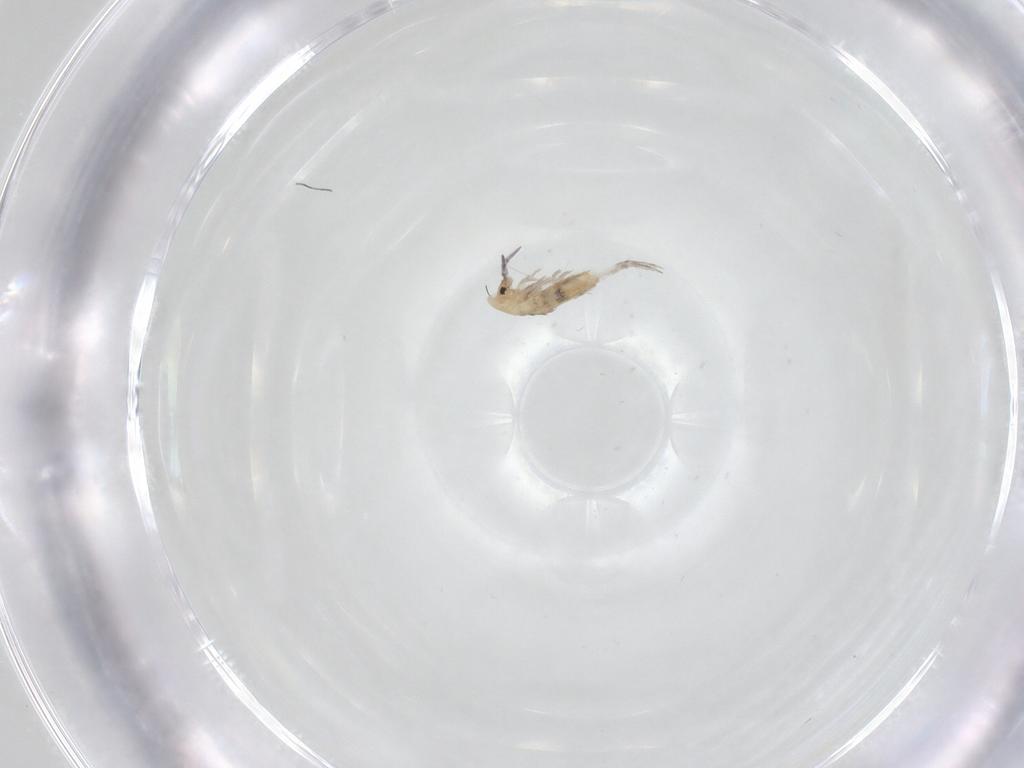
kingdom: Animalia
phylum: Arthropoda
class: Collembola
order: Entomobryomorpha
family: Entomobryidae
